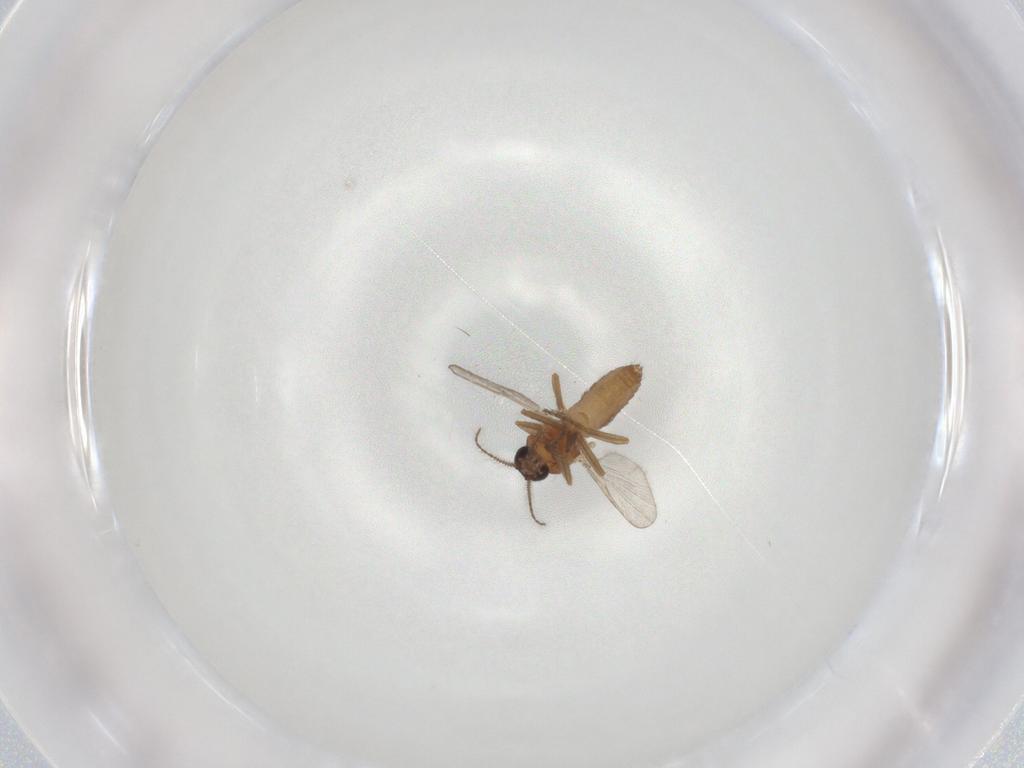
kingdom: Animalia
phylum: Arthropoda
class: Insecta
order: Diptera
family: Ceratopogonidae
